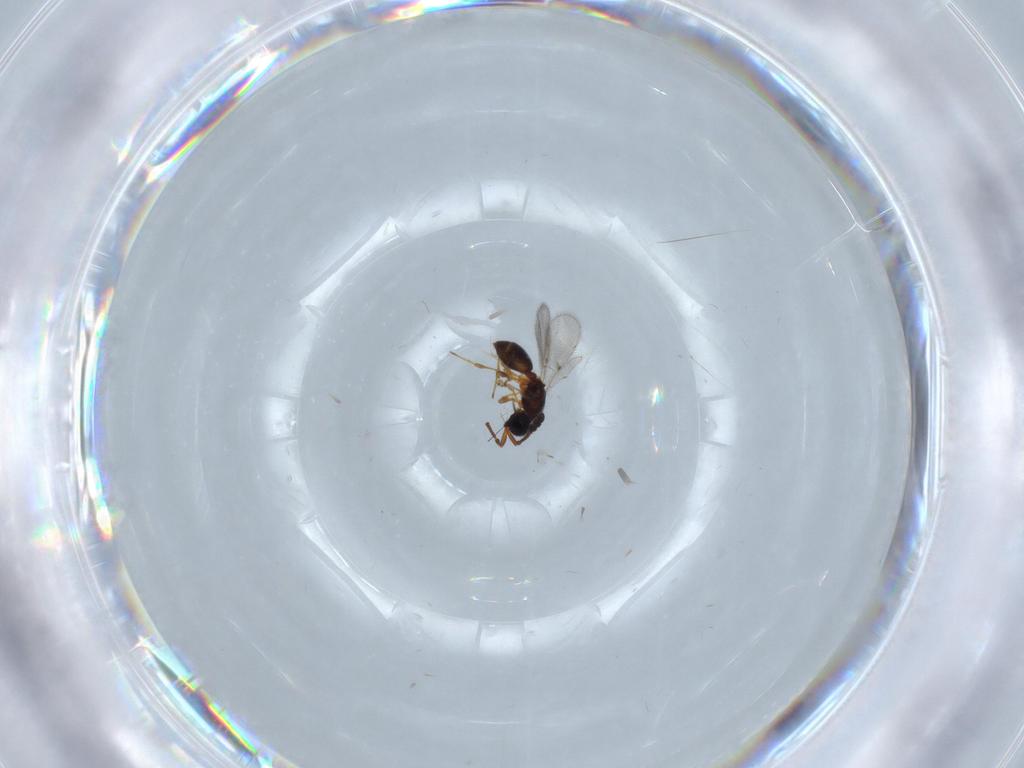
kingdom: Animalia
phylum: Arthropoda
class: Insecta
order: Hymenoptera
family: Diapriidae
